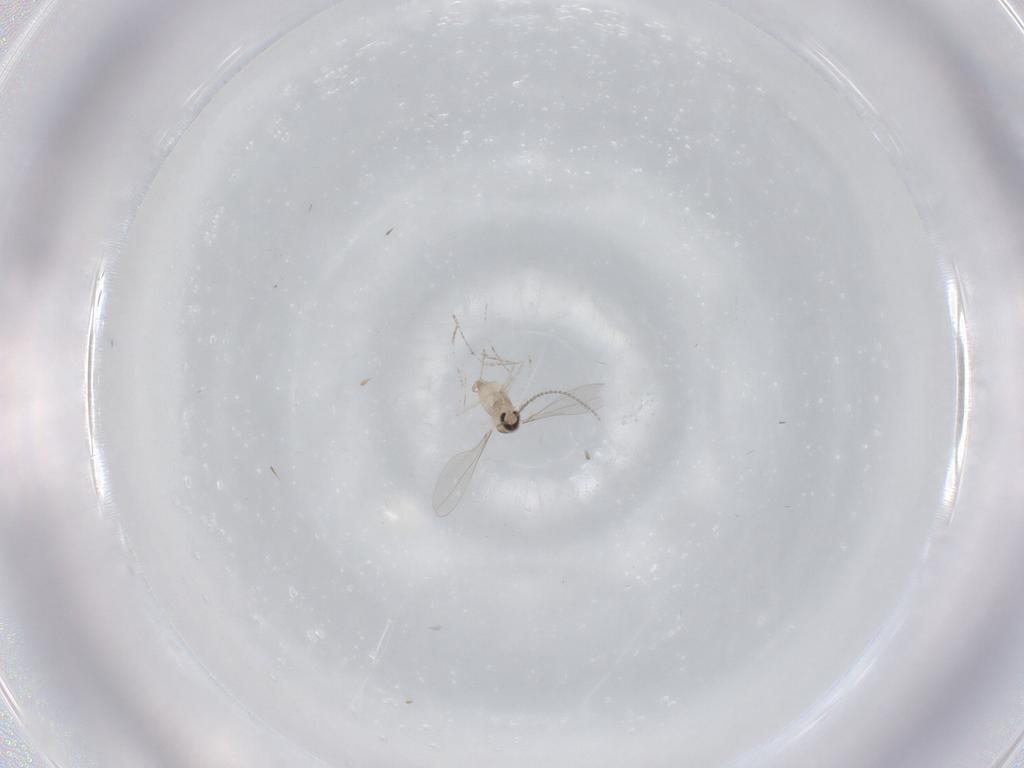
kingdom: Animalia
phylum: Arthropoda
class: Insecta
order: Diptera
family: Cecidomyiidae
